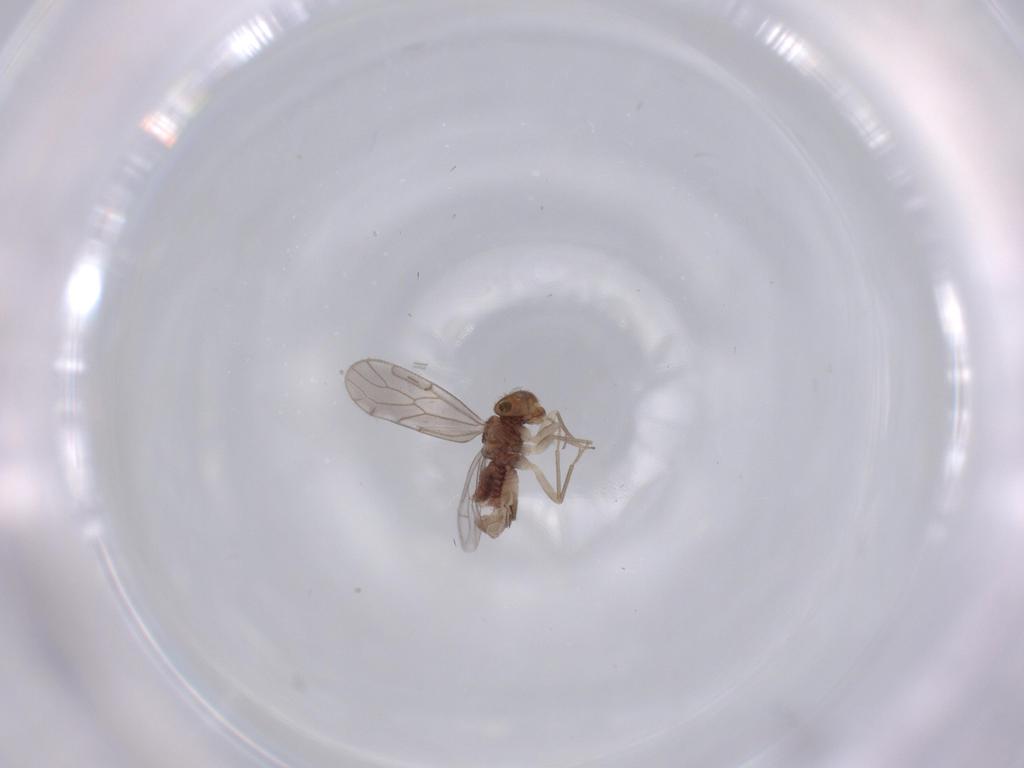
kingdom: Animalia
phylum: Arthropoda
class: Insecta
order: Psocodea
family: Ectopsocidae
